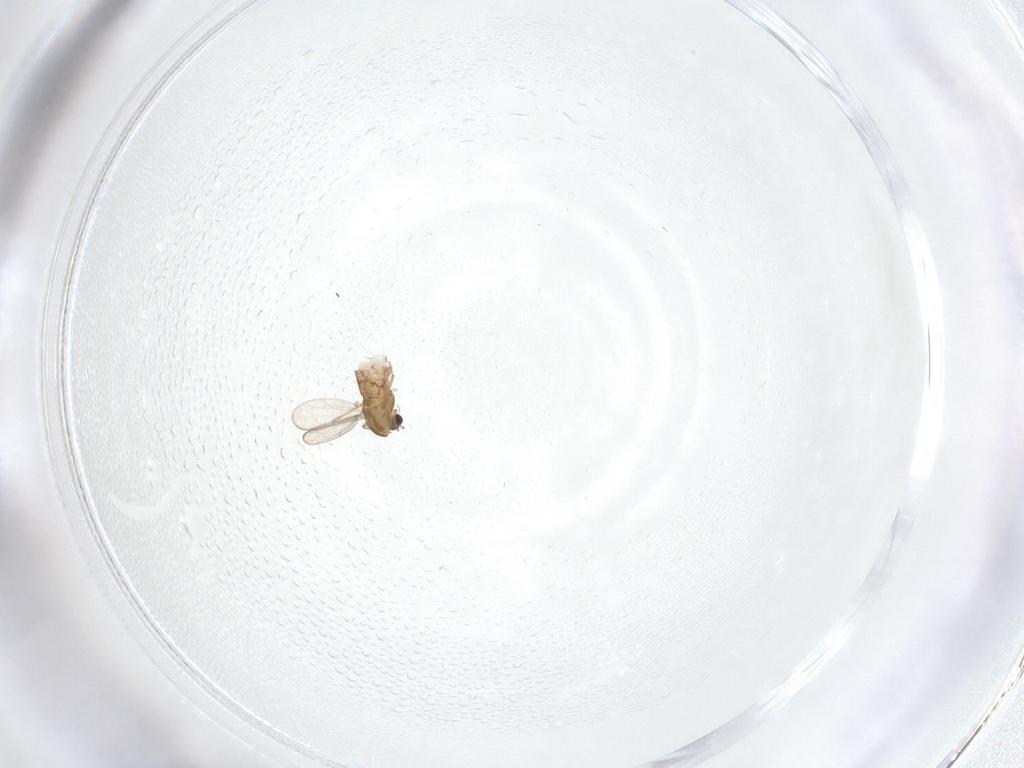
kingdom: Animalia
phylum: Arthropoda
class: Insecta
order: Diptera
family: Chironomidae
